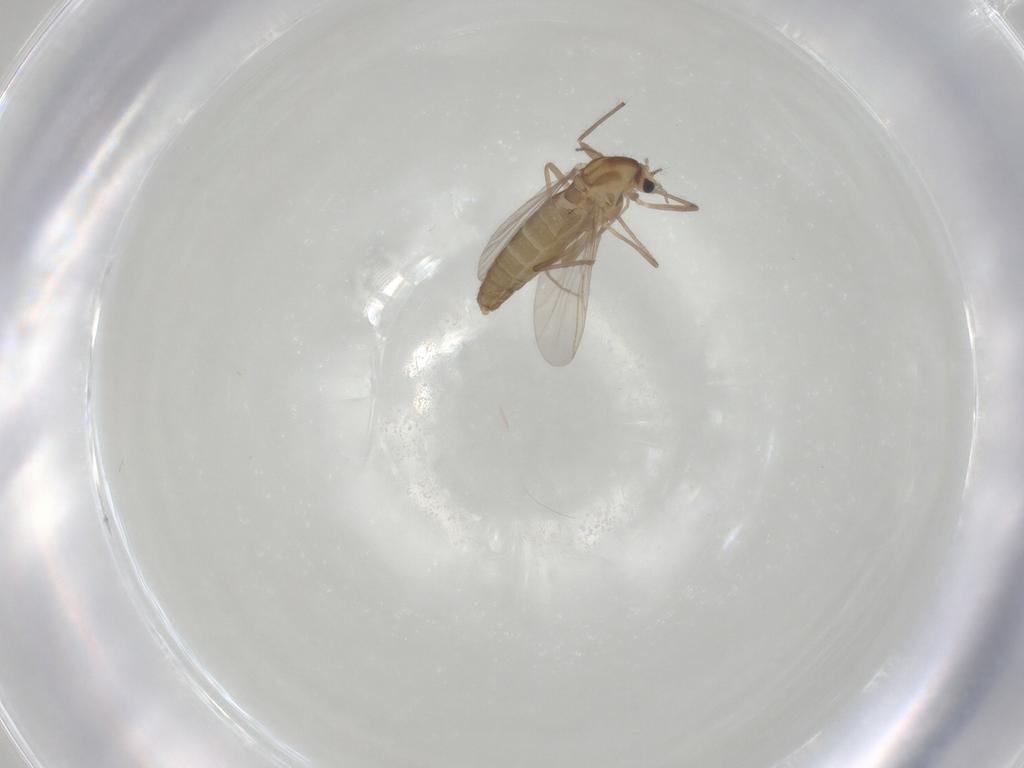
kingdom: Animalia
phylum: Arthropoda
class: Insecta
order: Diptera
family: Chironomidae
